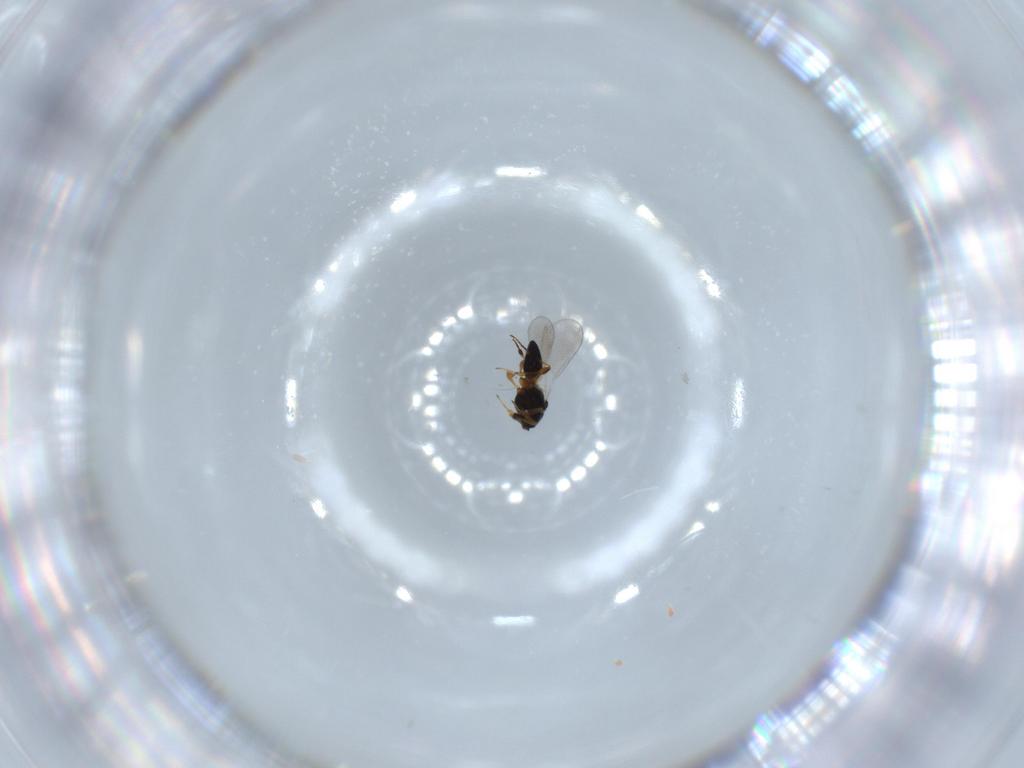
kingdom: Animalia
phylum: Arthropoda
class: Insecta
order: Hymenoptera
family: Platygastridae
